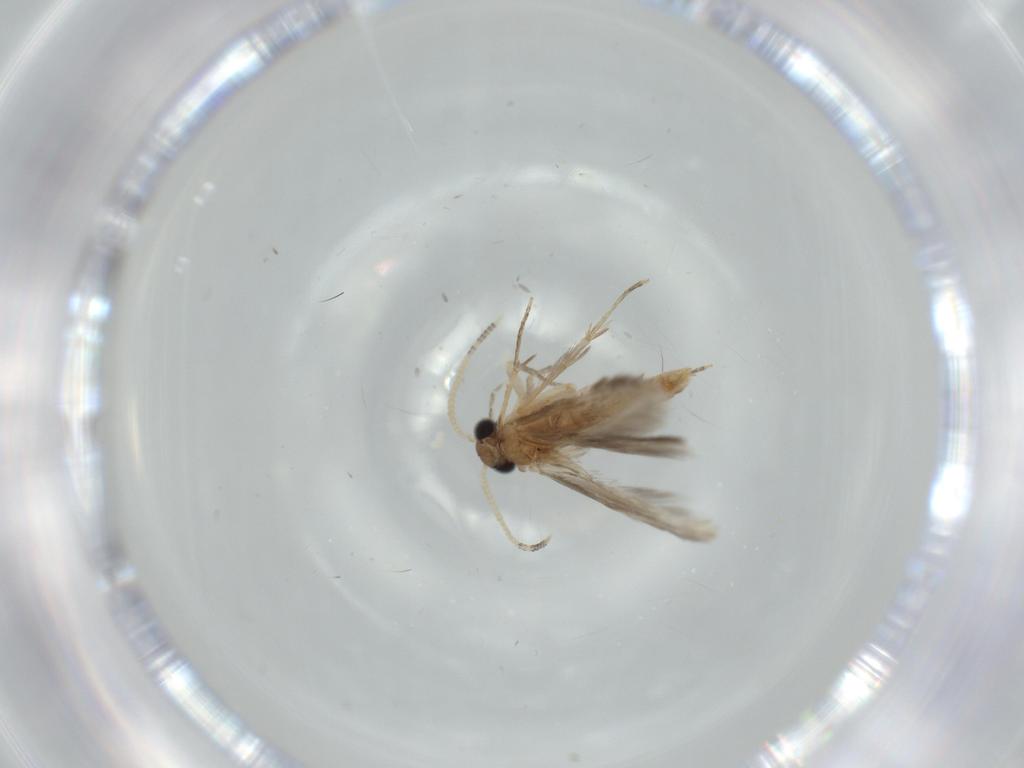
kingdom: Animalia
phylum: Arthropoda
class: Insecta
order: Trichoptera
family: Hydroptilidae
